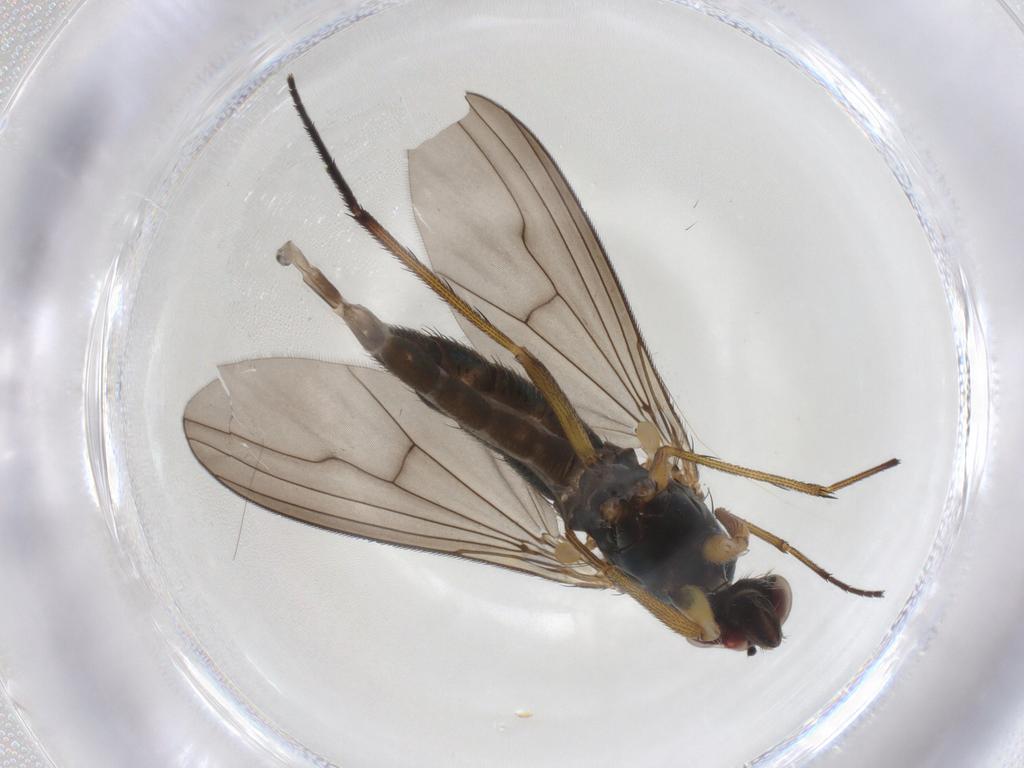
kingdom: Animalia
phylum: Arthropoda
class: Insecta
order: Diptera
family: Dolichopodidae
